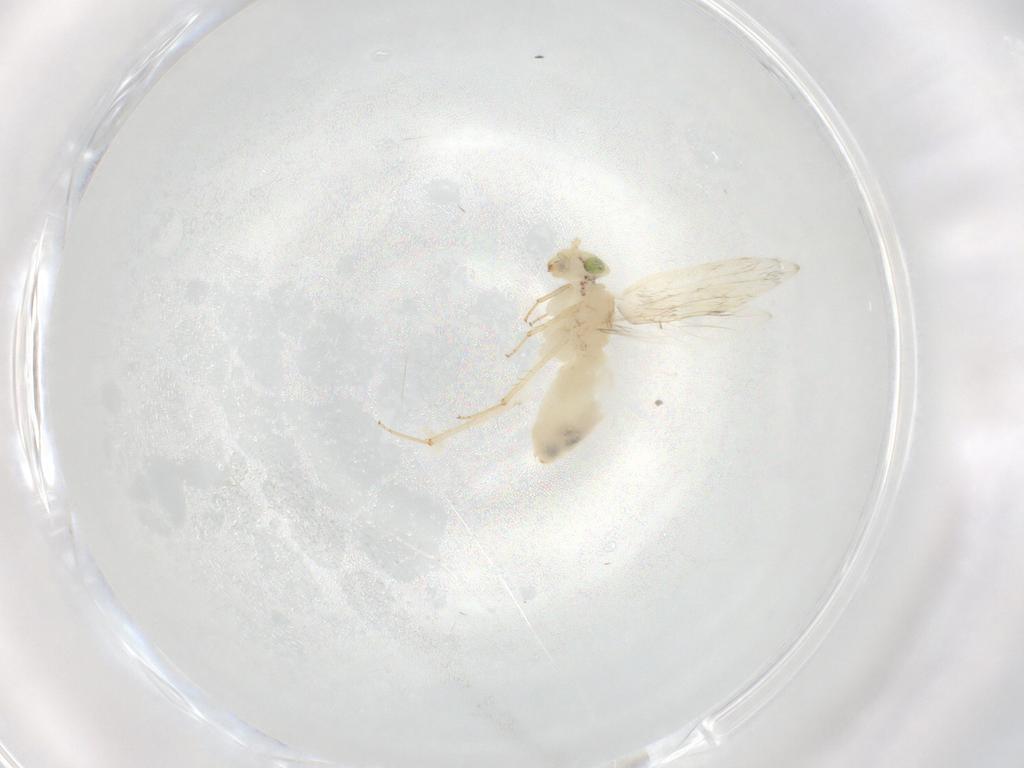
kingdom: Animalia
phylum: Arthropoda
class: Insecta
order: Psocodea
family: Lepidopsocidae
